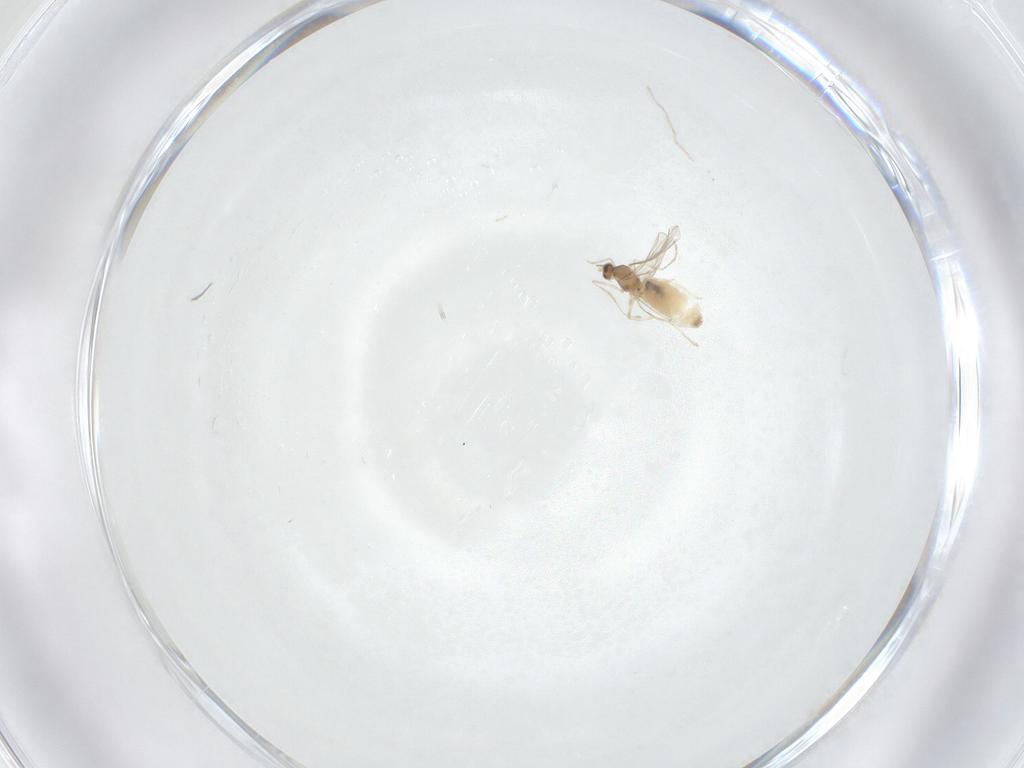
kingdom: Animalia
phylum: Arthropoda
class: Insecta
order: Diptera
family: Cecidomyiidae
